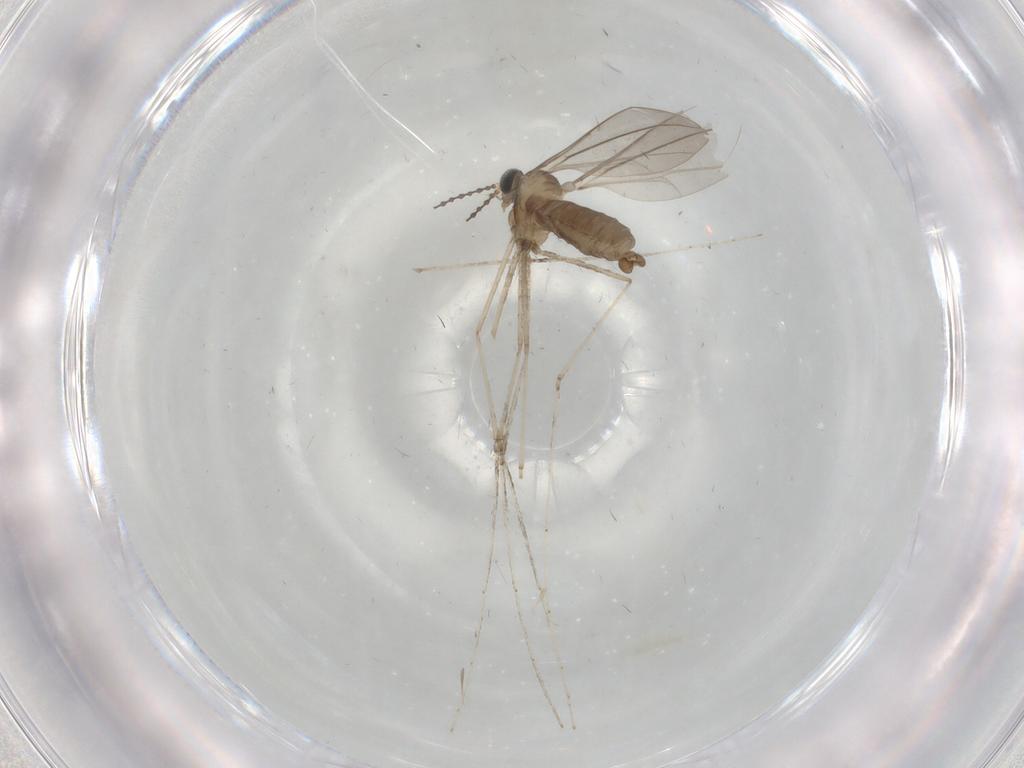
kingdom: Animalia
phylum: Arthropoda
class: Insecta
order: Diptera
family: Cecidomyiidae
